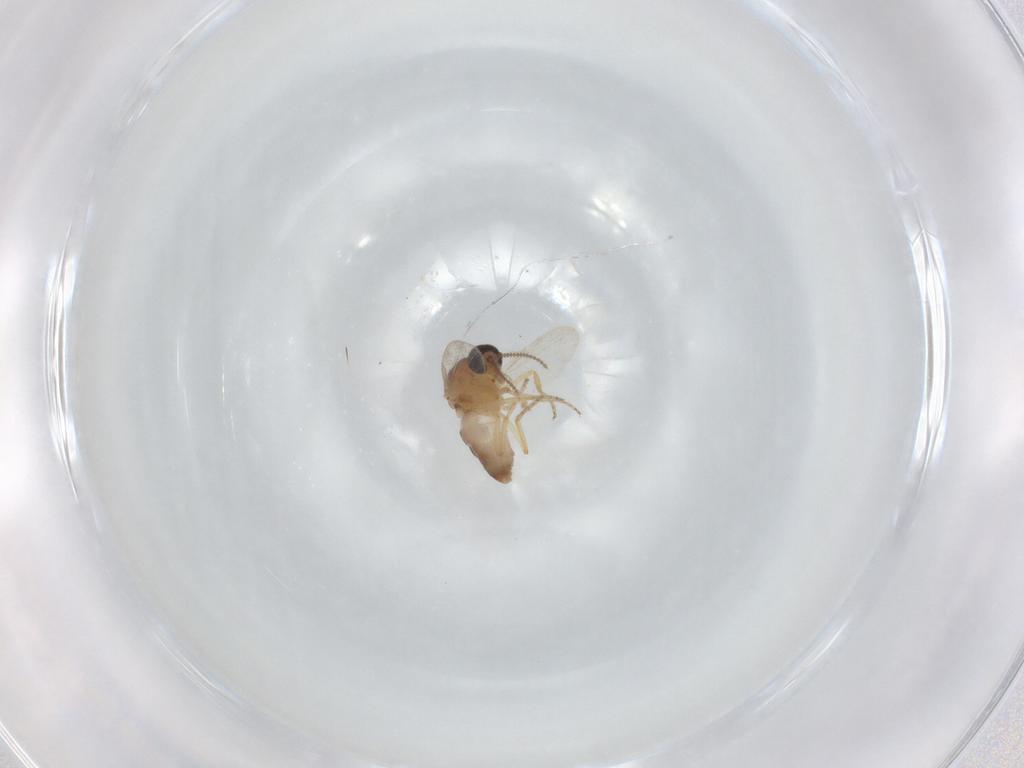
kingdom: Animalia
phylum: Arthropoda
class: Insecta
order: Diptera
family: Ceratopogonidae
